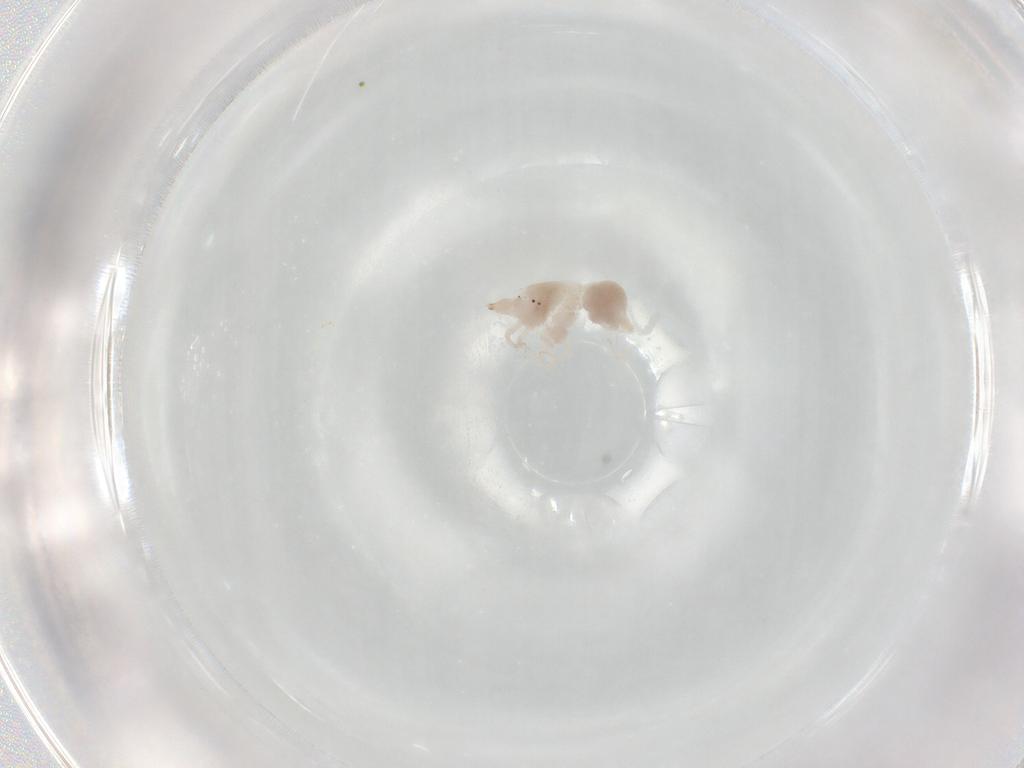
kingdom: Animalia
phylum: Arthropoda
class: Arachnida
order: Trombidiformes
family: Bdellidae
